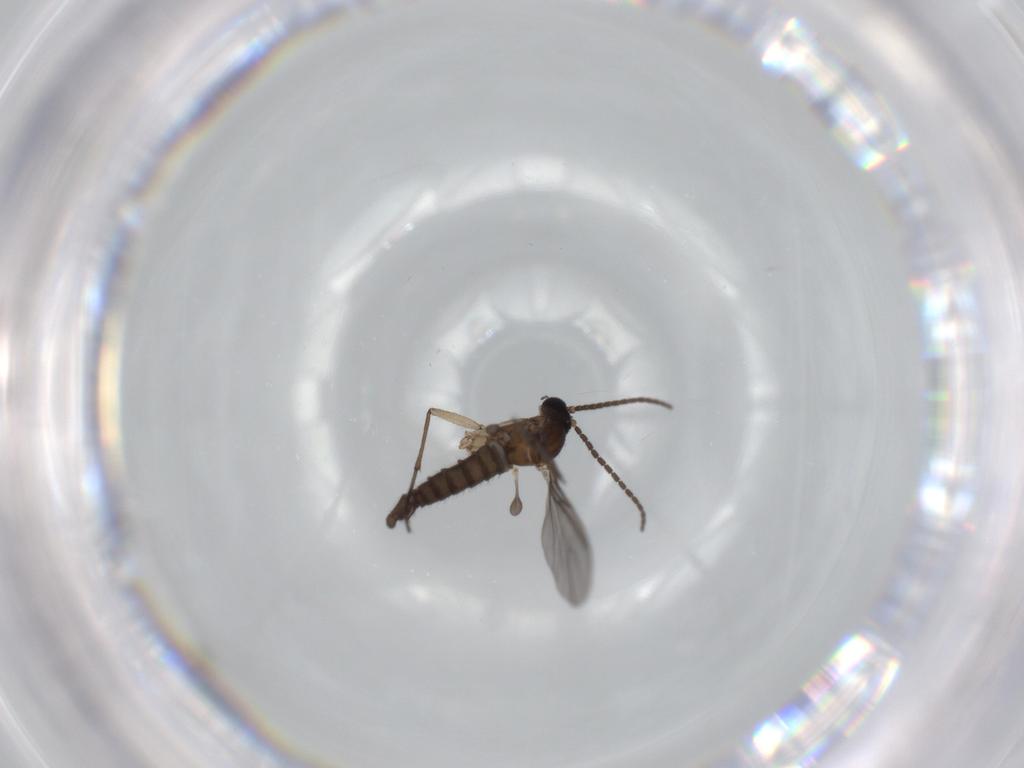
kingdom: Animalia
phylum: Arthropoda
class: Insecta
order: Diptera
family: Sciaridae
